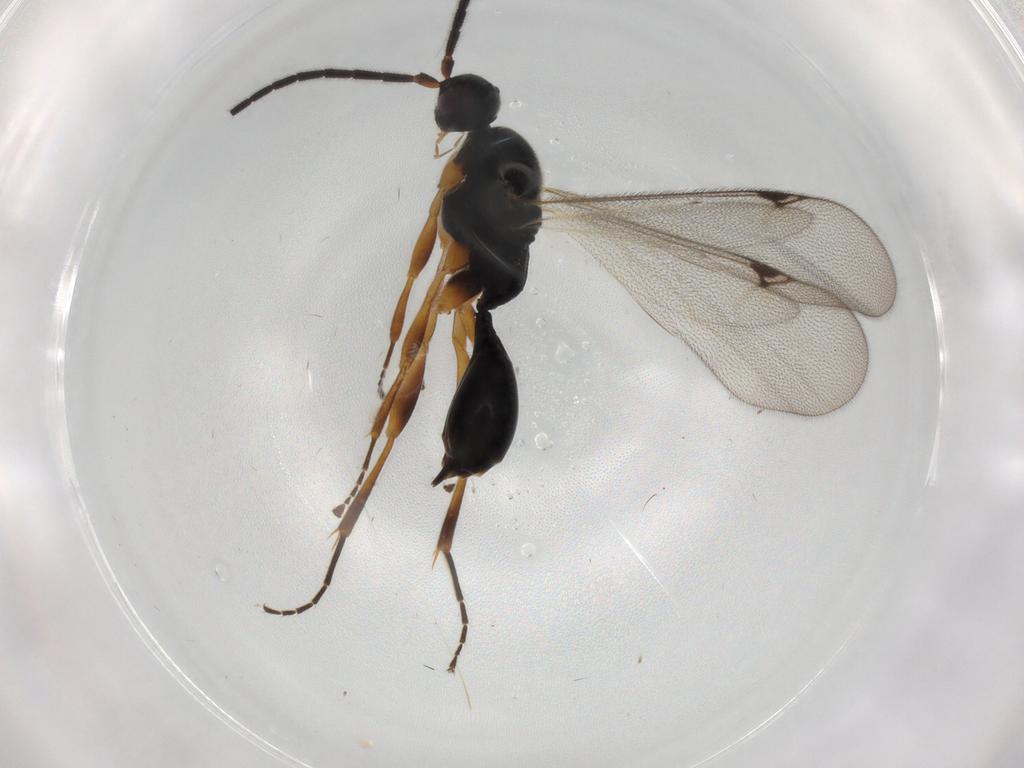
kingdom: Animalia
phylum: Arthropoda
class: Insecta
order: Hymenoptera
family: Proctotrupidae
